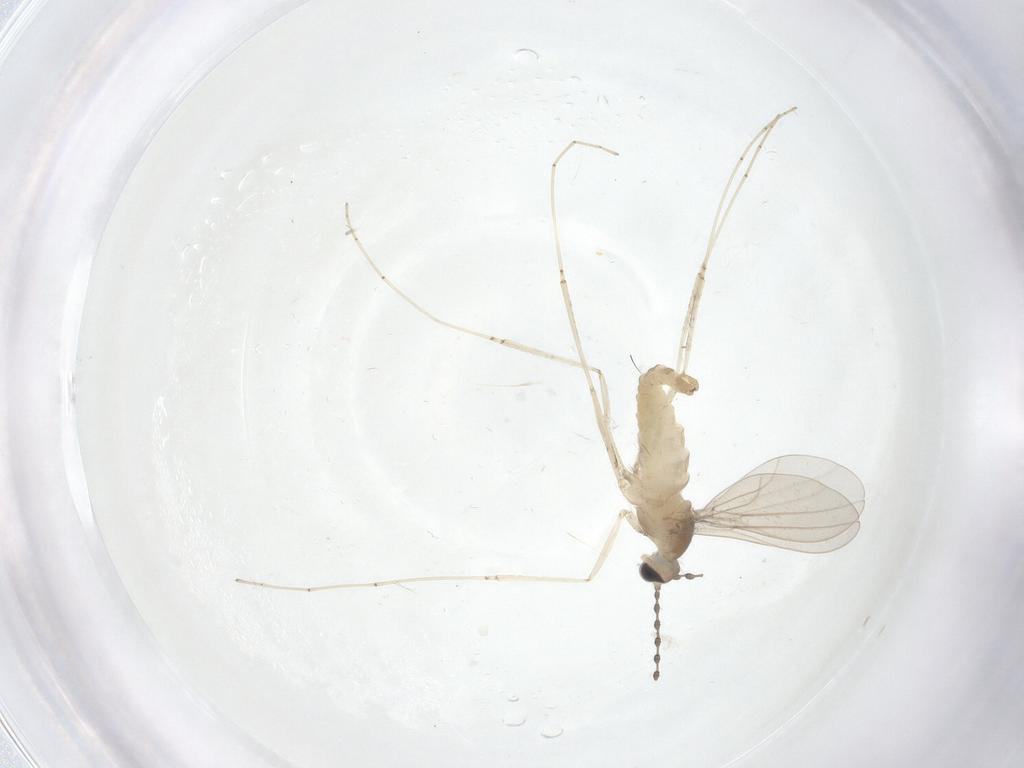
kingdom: Animalia
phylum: Arthropoda
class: Insecta
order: Diptera
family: Cecidomyiidae
